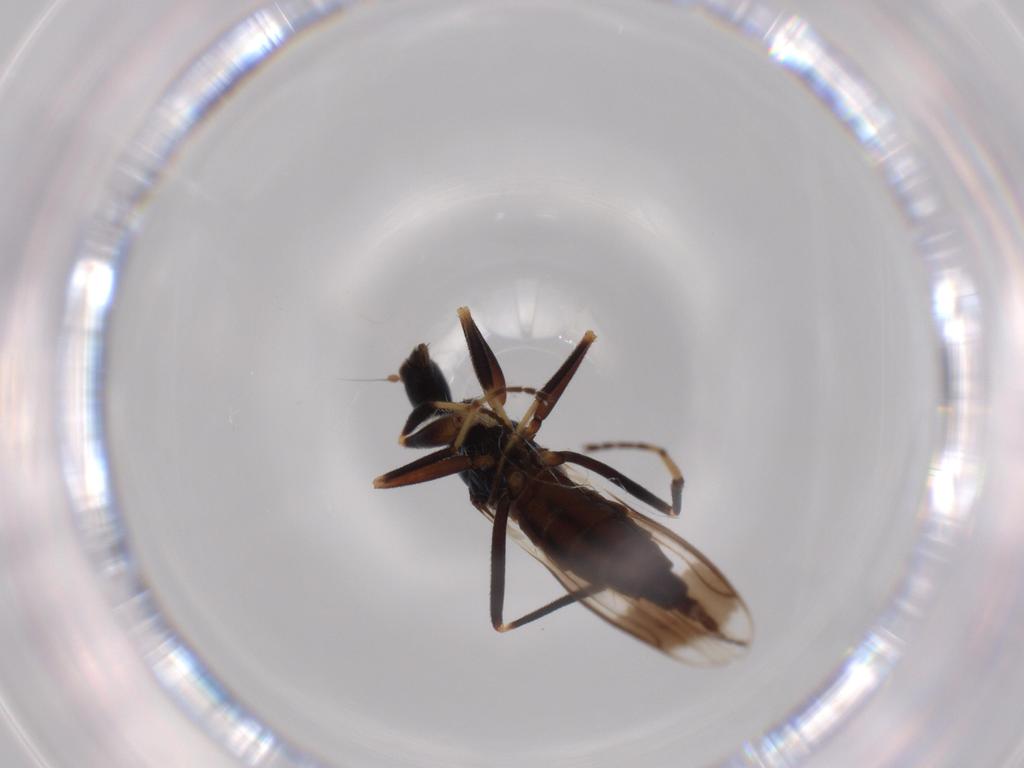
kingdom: Animalia
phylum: Arthropoda
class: Insecta
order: Diptera
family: Hybotidae
